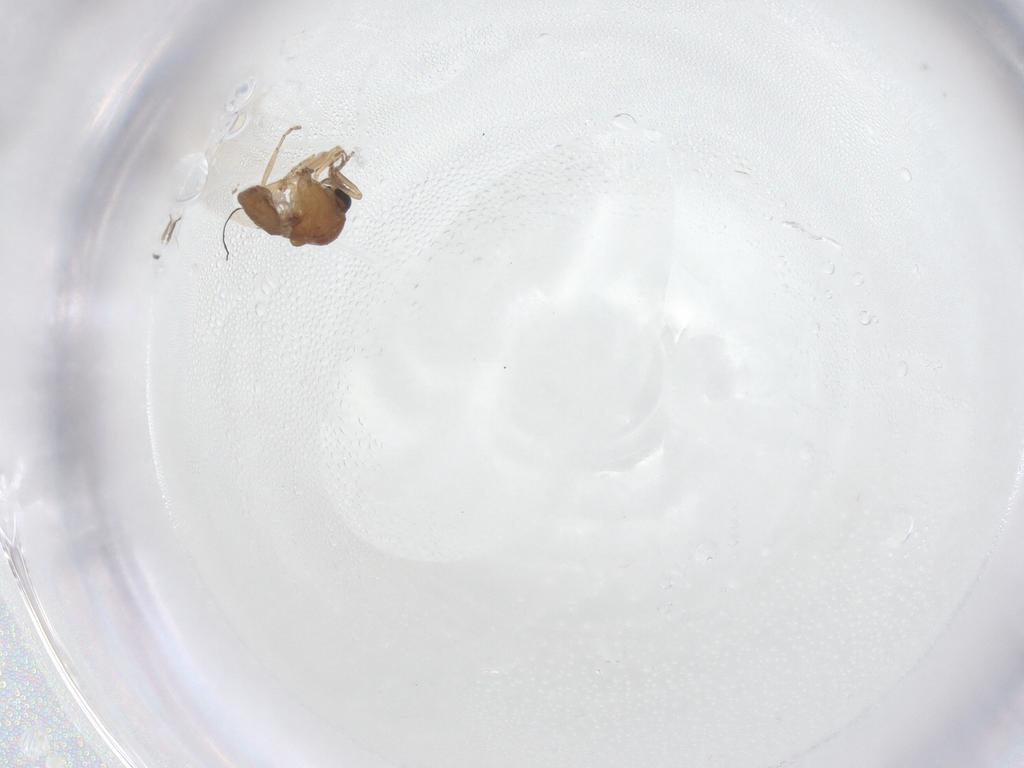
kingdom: Animalia
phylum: Arthropoda
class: Insecta
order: Diptera
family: Ceratopogonidae
